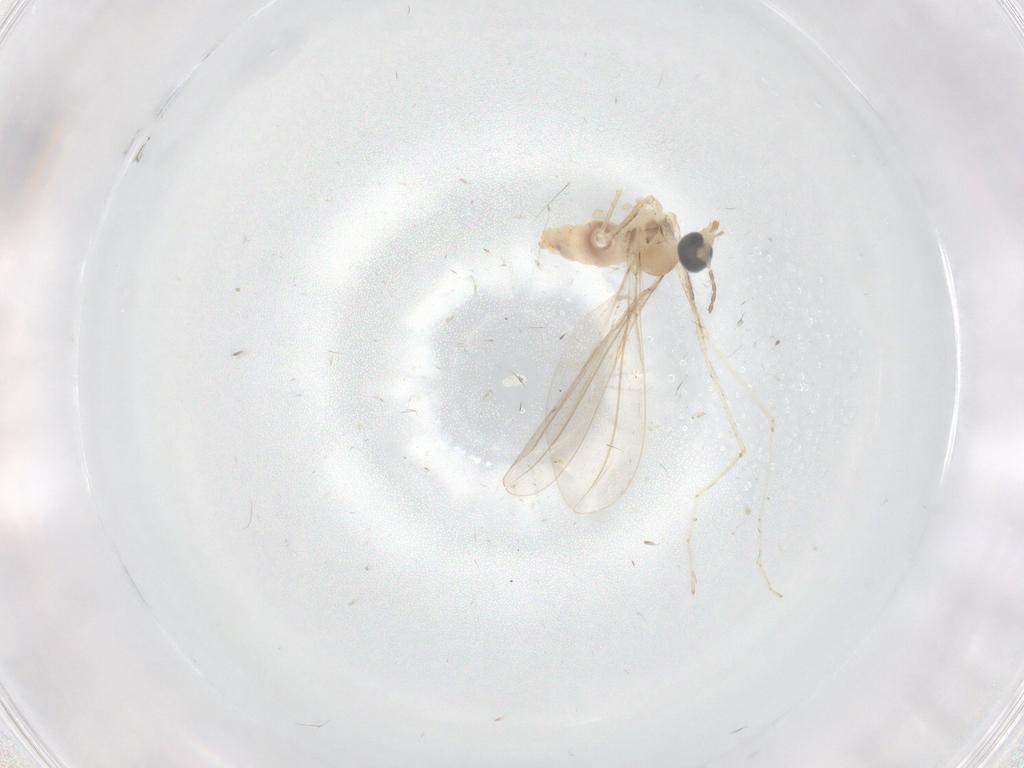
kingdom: Animalia
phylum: Arthropoda
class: Insecta
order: Diptera
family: Cecidomyiidae
